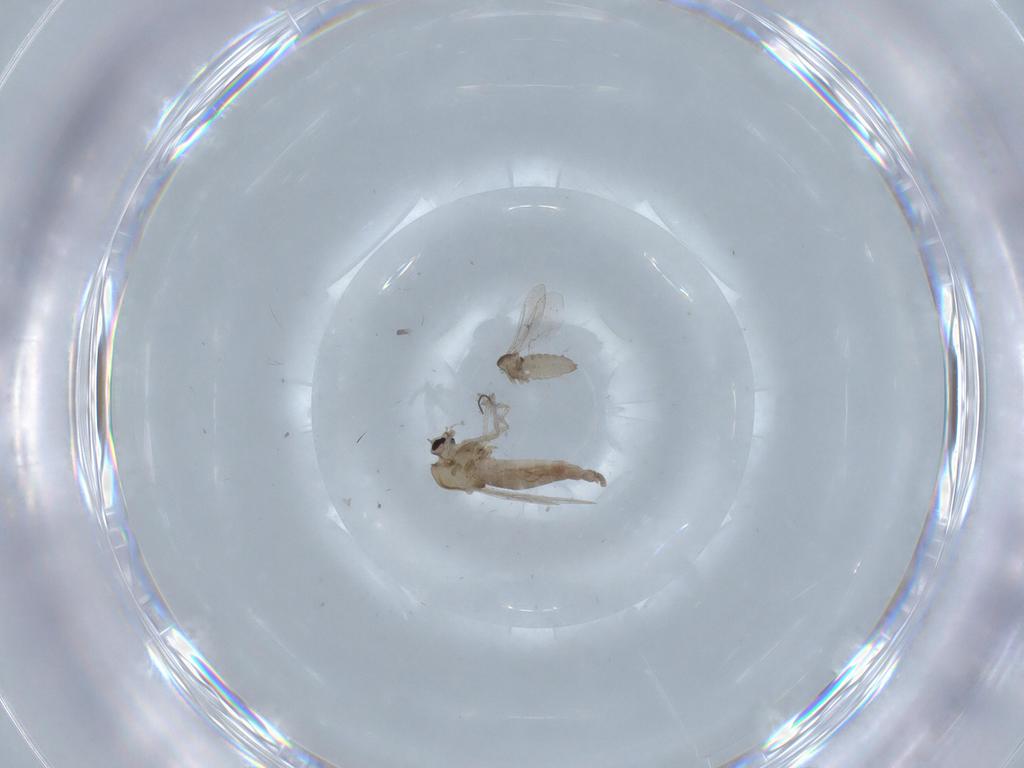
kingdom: Animalia
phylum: Arthropoda
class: Insecta
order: Diptera
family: Chironomidae
